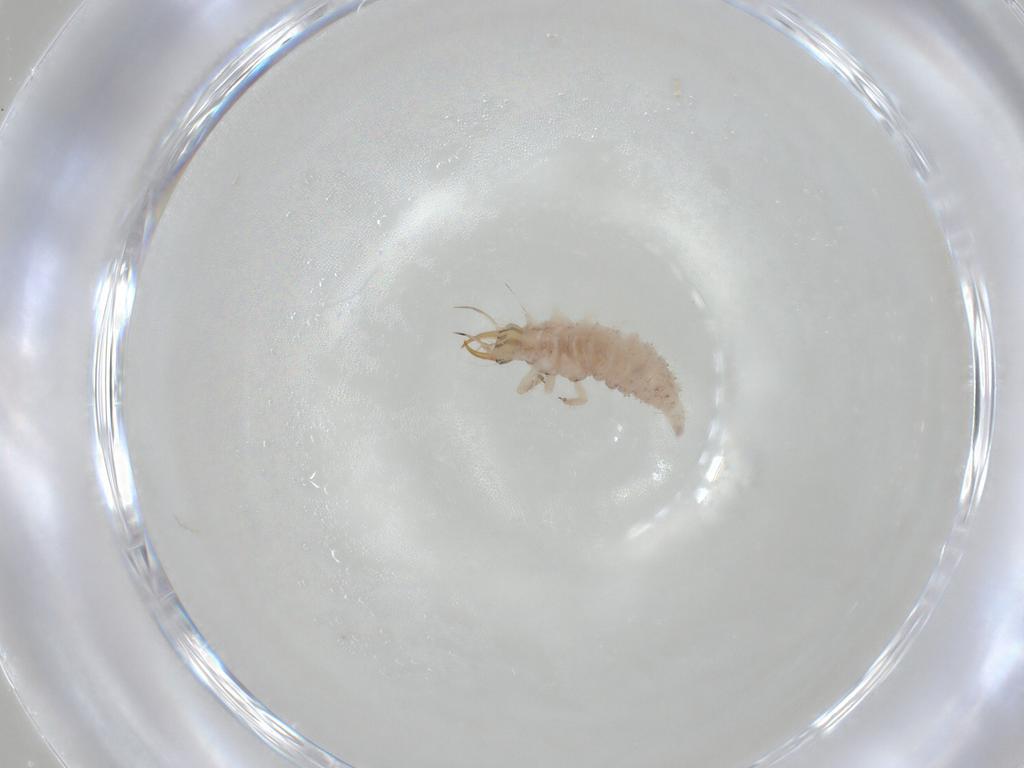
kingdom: Animalia
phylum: Arthropoda
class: Insecta
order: Neuroptera
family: Chrysopidae
